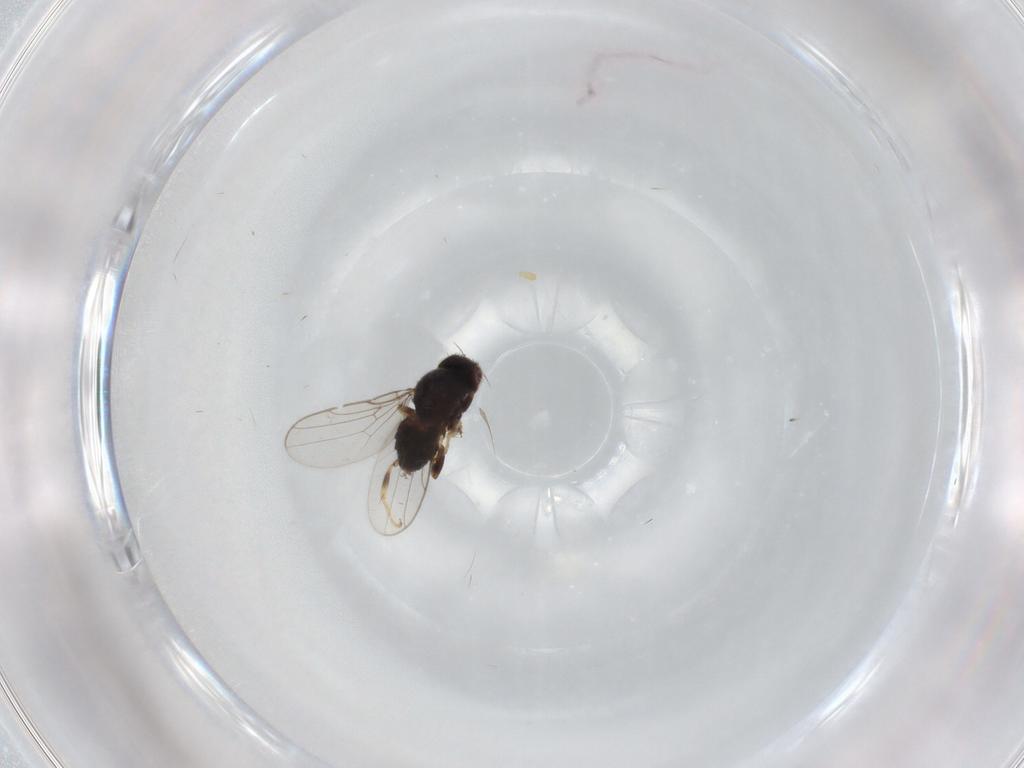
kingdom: Animalia
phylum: Arthropoda
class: Insecta
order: Diptera
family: Chloropidae
